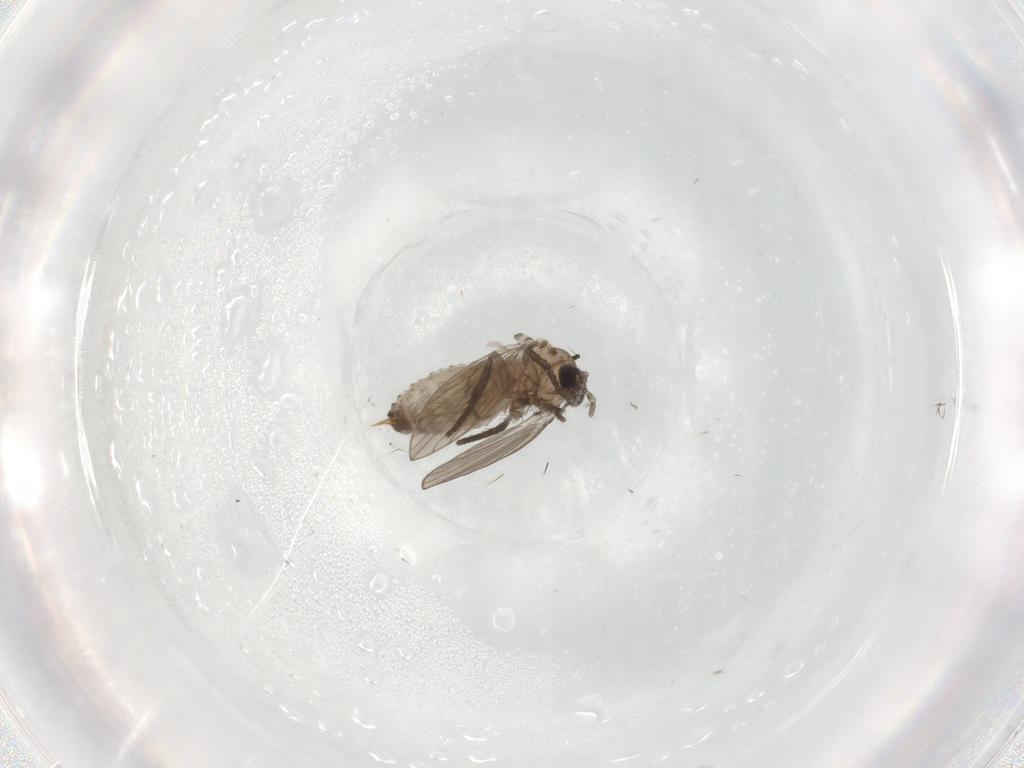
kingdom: Animalia
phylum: Arthropoda
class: Insecta
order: Diptera
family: Psychodidae
